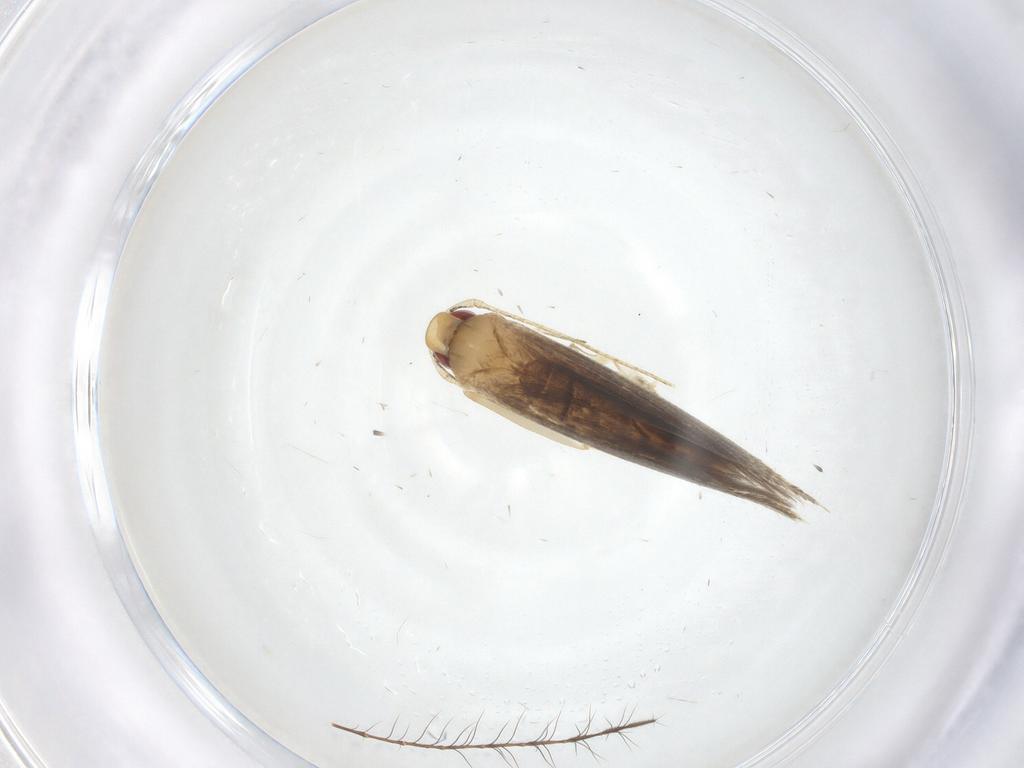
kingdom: Animalia
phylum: Arthropoda
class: Insecta
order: Lepidoptera
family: Lecithoceridae
